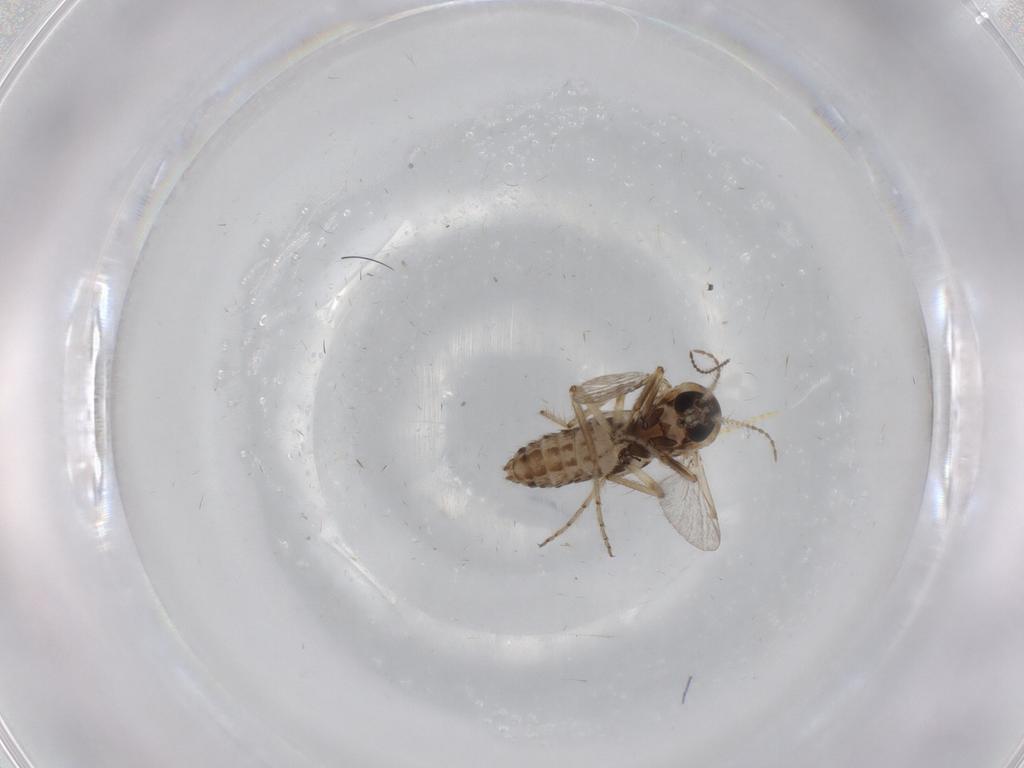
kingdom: Animalia
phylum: Arthropoda
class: Insecta
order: Diptera
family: Ceratopogonidae
